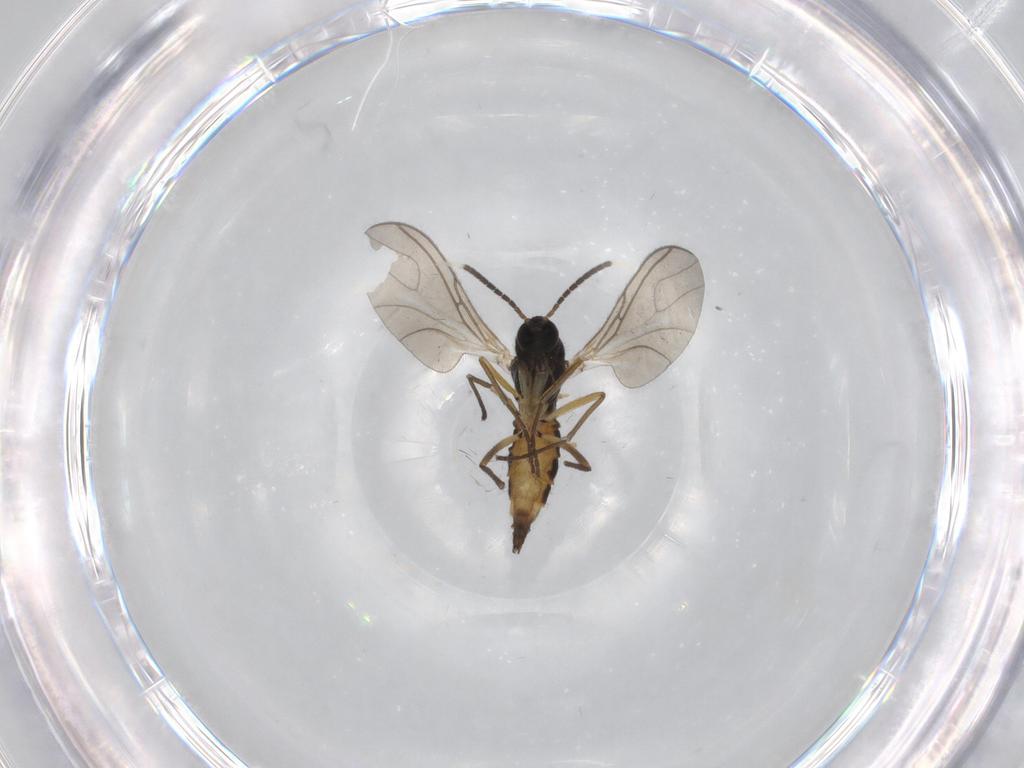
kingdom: Animalia
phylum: Arthropoda
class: Insecta
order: Diptera
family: Sciaridae
